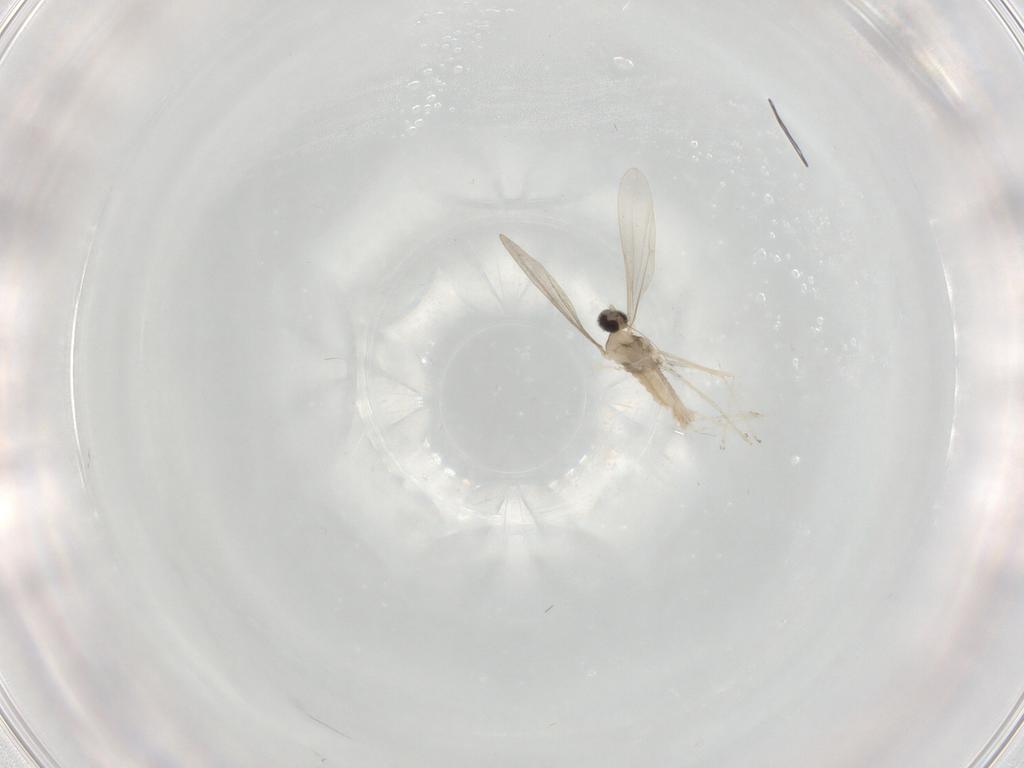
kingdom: Animalia
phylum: Arthropoda
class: Insecta
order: Diptera
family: Cecidomyiidae
